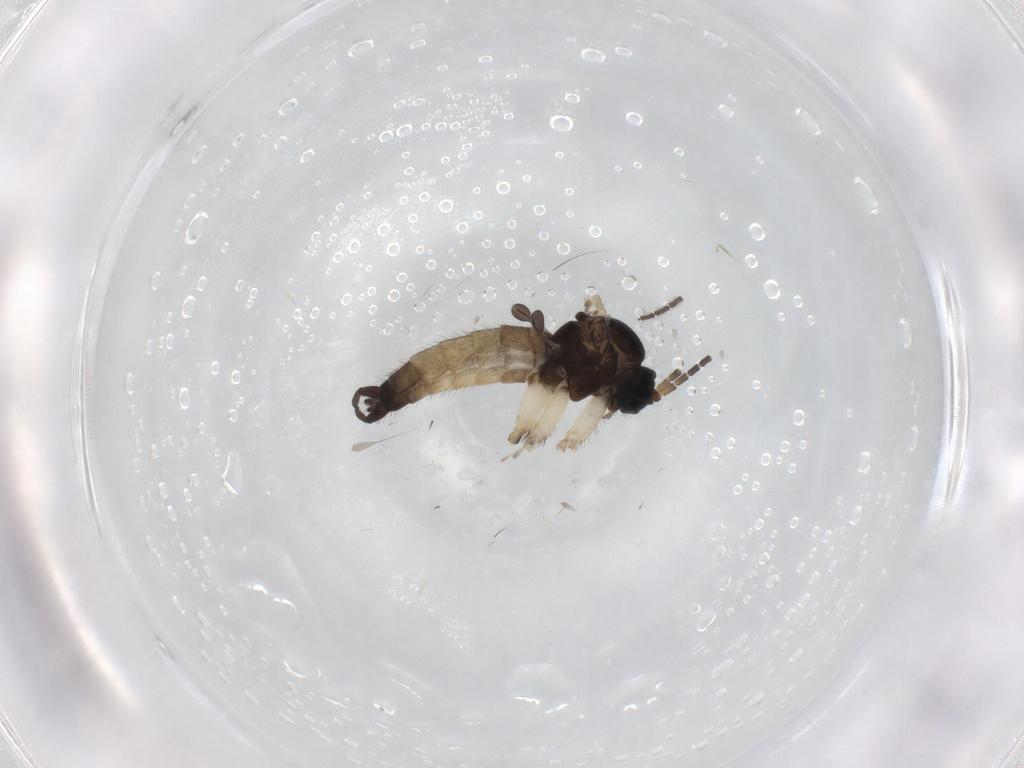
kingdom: Animalia
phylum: Arthropoda
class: Insecta
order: Diptera
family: Sciaridae
